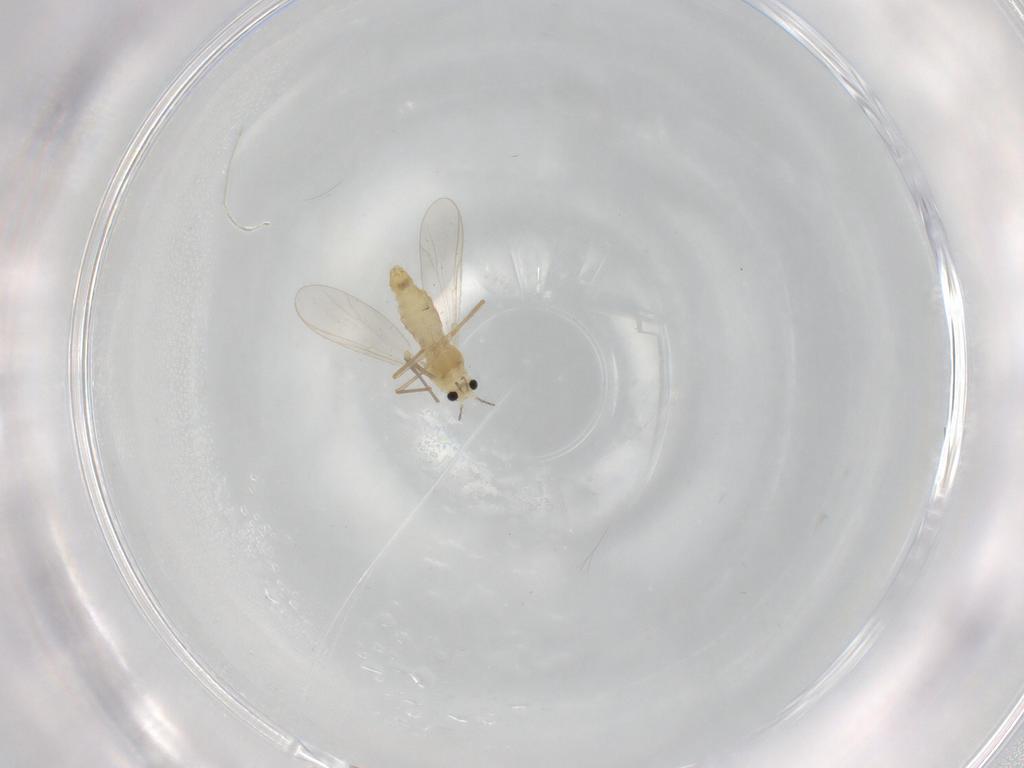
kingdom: Animalia
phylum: Arthropoda
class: Insecta
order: Diptera
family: Chironomidae
